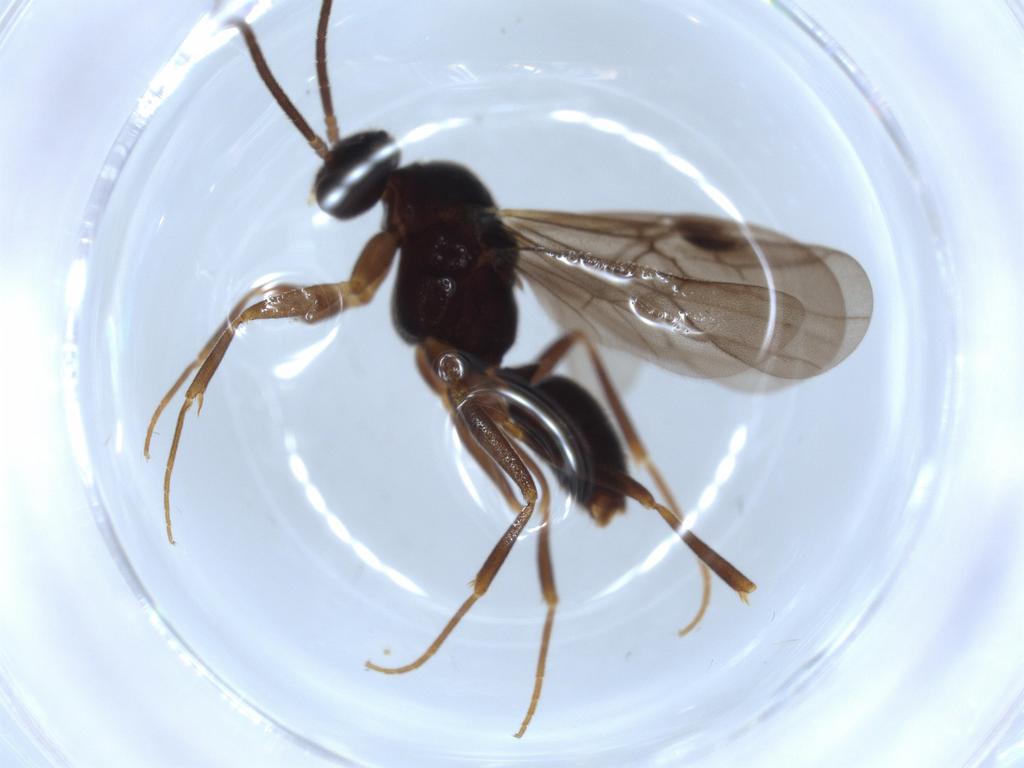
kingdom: Animalia
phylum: Arthropoda
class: Insecta
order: Hymenoptera
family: Formicidae
